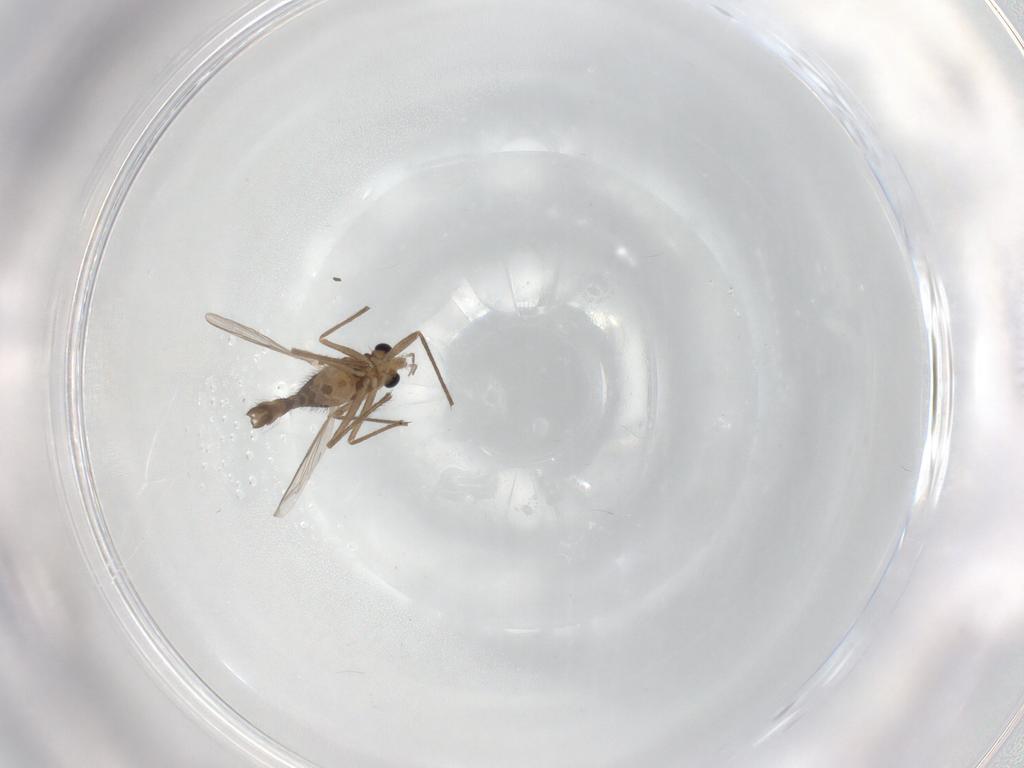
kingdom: Animalia
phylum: Arthropoda
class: Insecta
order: Diptera
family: Chironomidae
